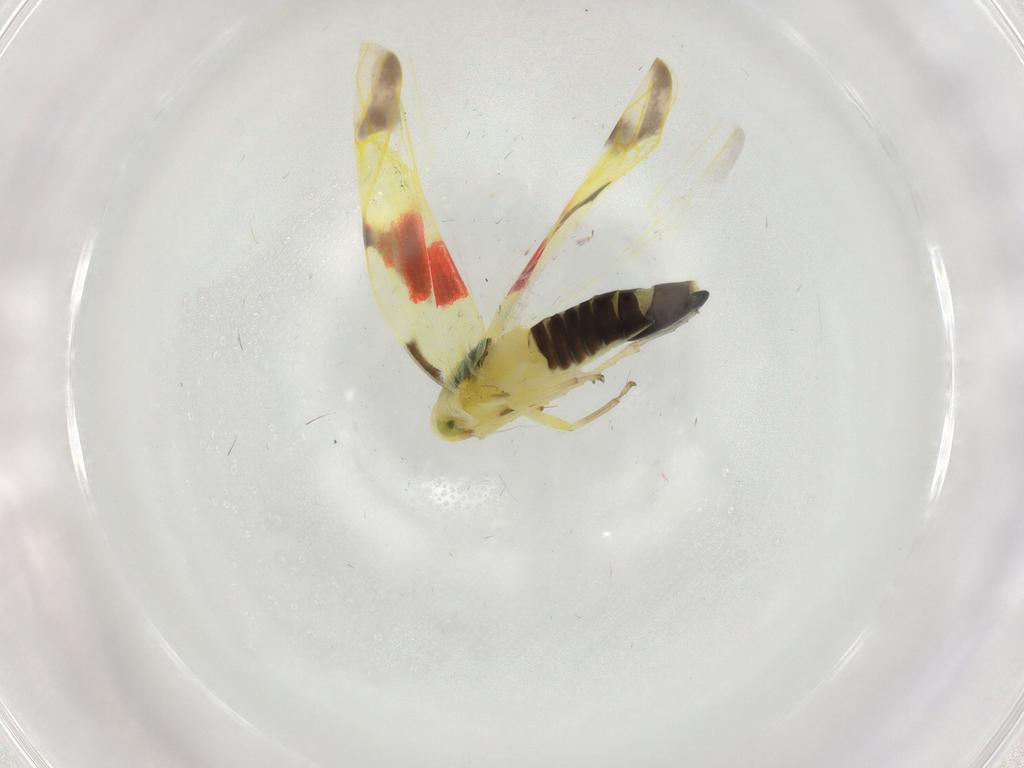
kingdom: Animalia
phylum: Arthropoda
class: Insecta
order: Hemiptera
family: Cicadellidae
